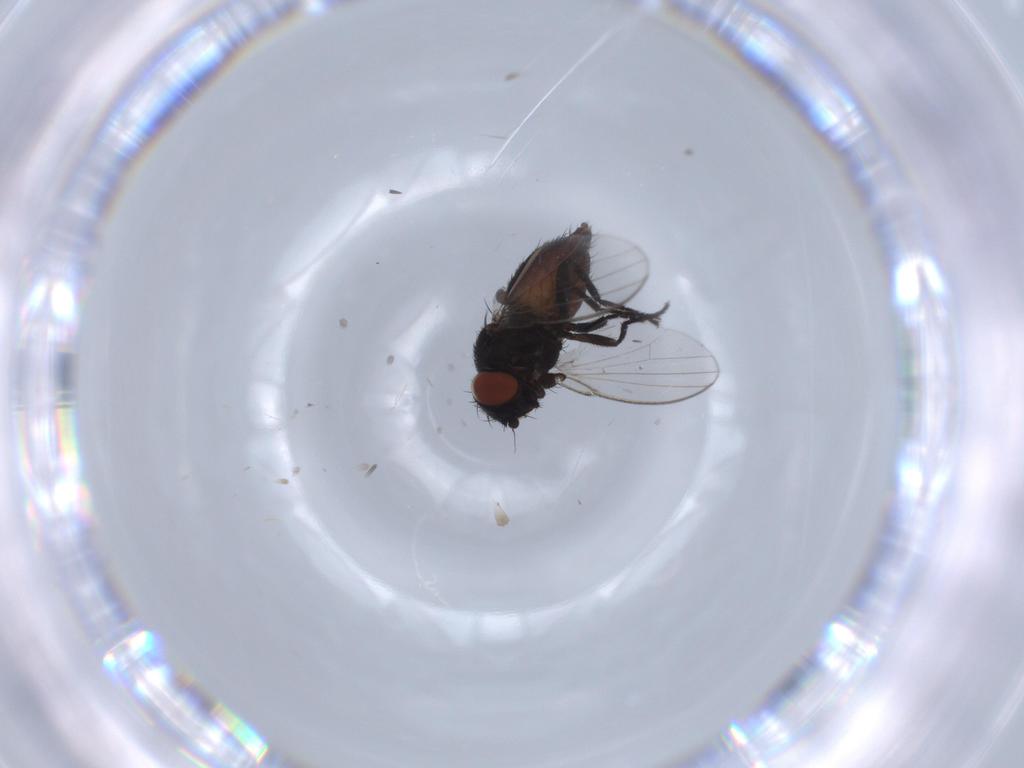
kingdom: Animalia
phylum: Arthropoda
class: Insecta
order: Diptera
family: Milichiidae
